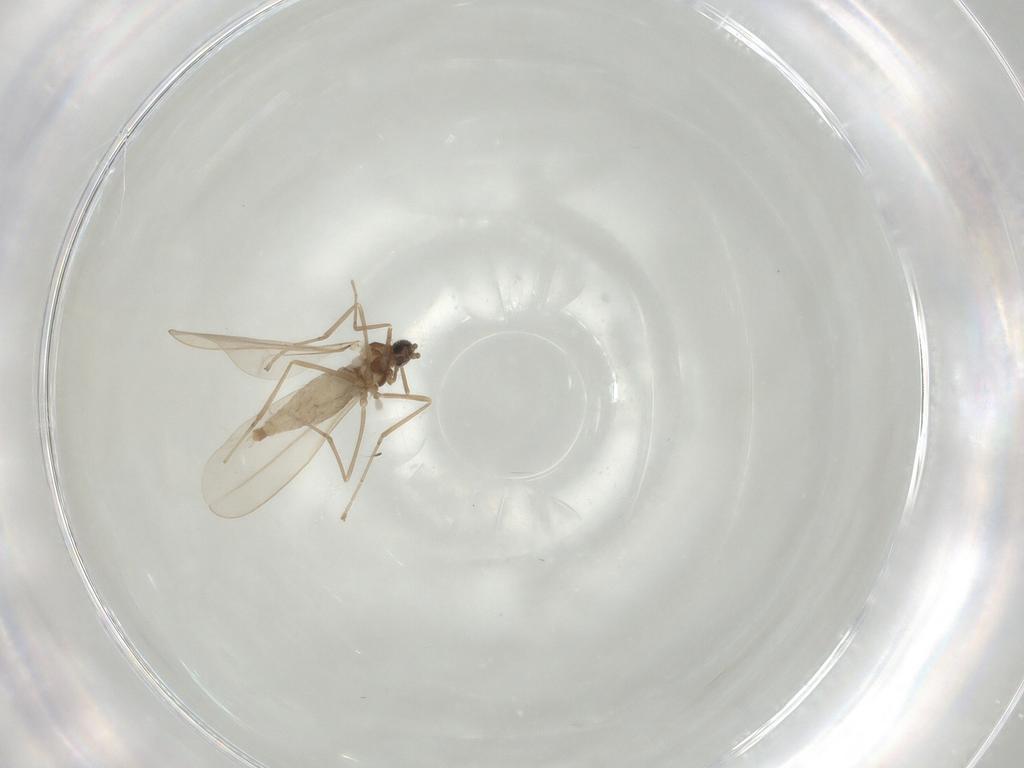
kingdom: Animalia
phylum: Arthropoda
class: Insecta
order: Diptera
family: Cecidomyiidae
